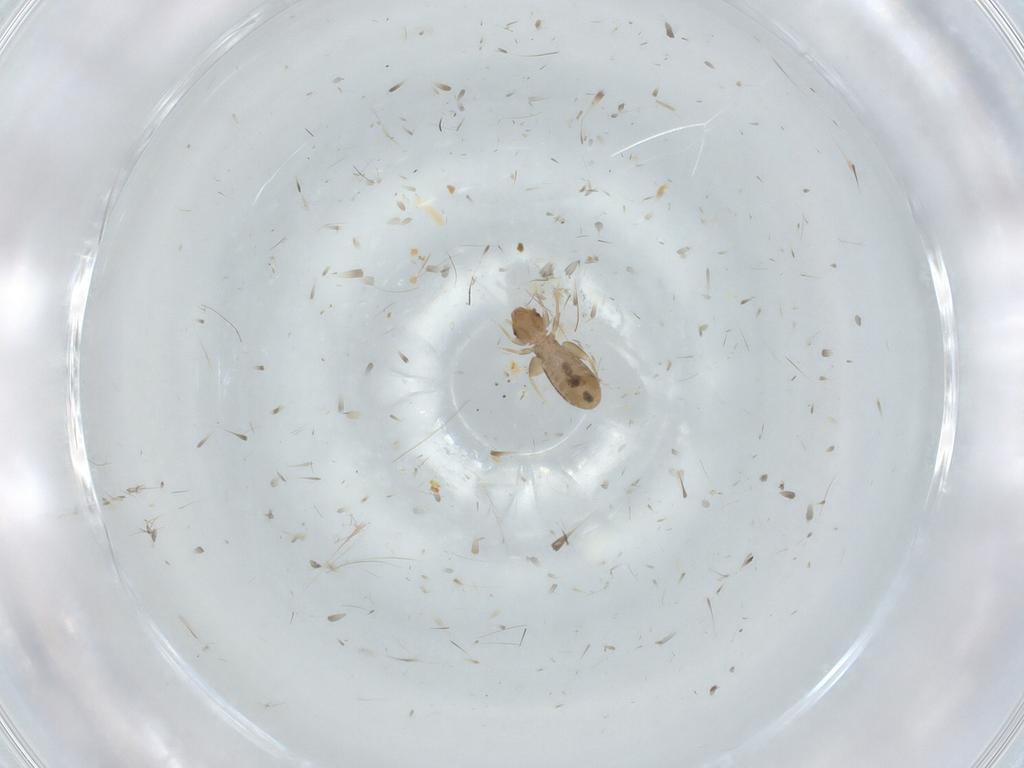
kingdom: Animalia
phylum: Arthropoda
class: Insecta
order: Psocodea
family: Liposcelididae
